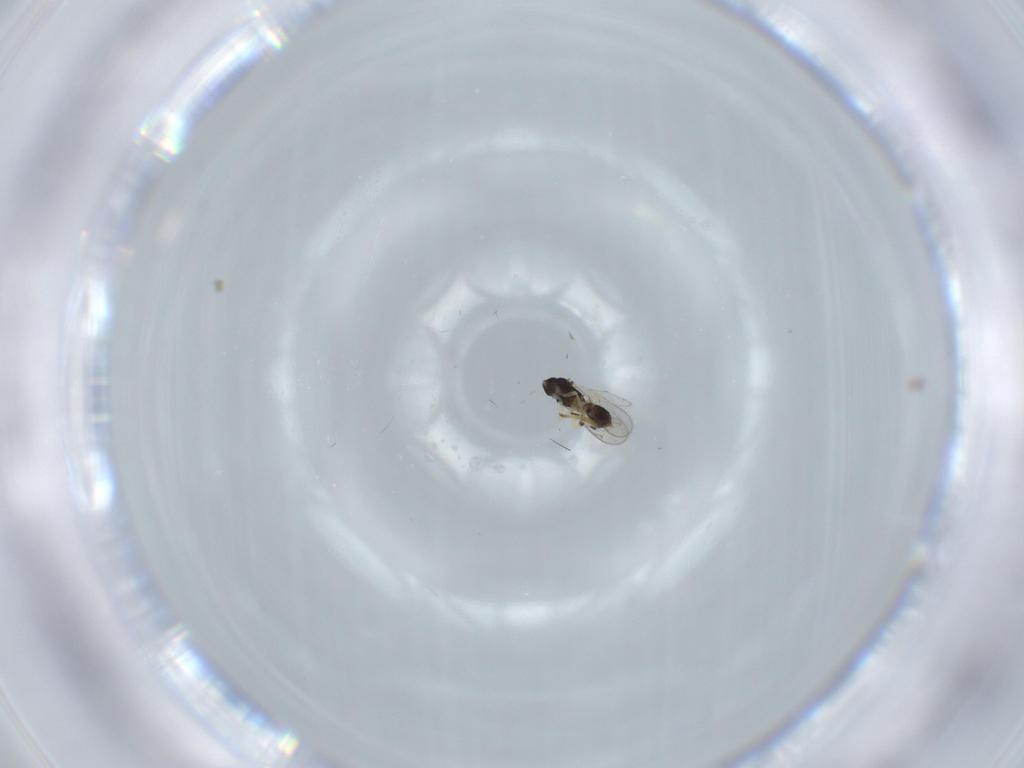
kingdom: Animalia
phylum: Arthropoda
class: Insecta
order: Hymenoptera
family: Eupelmidae
